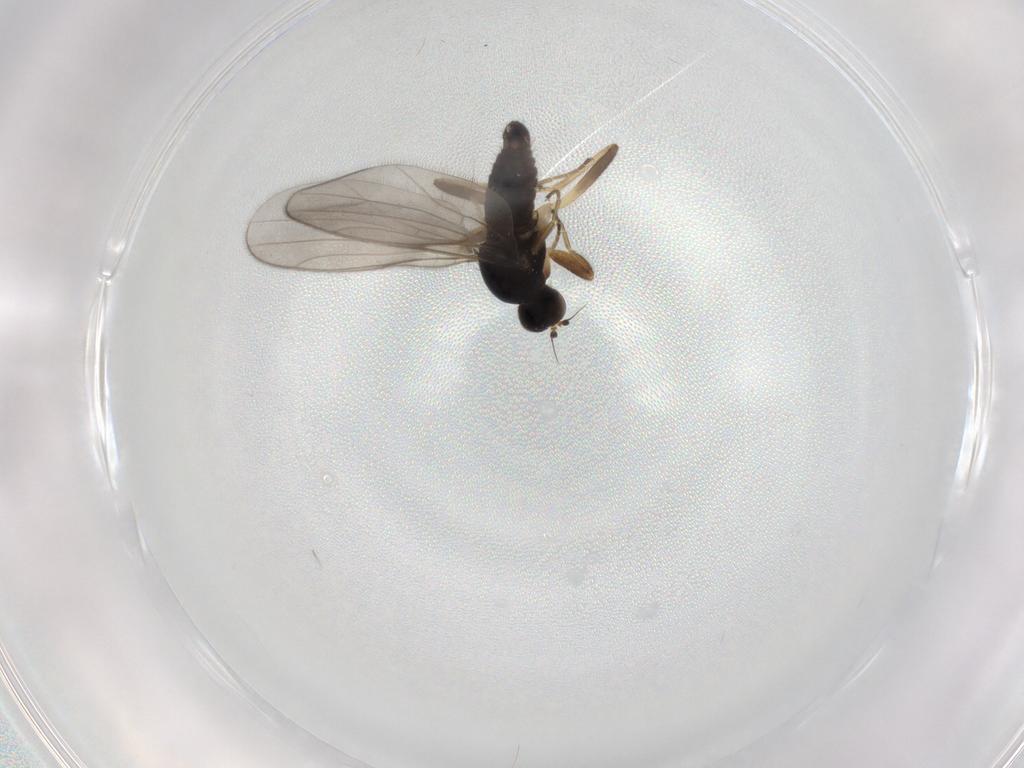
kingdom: Animalia
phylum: Arthropoda
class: Insecta
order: Diptera
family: Hybotidae
